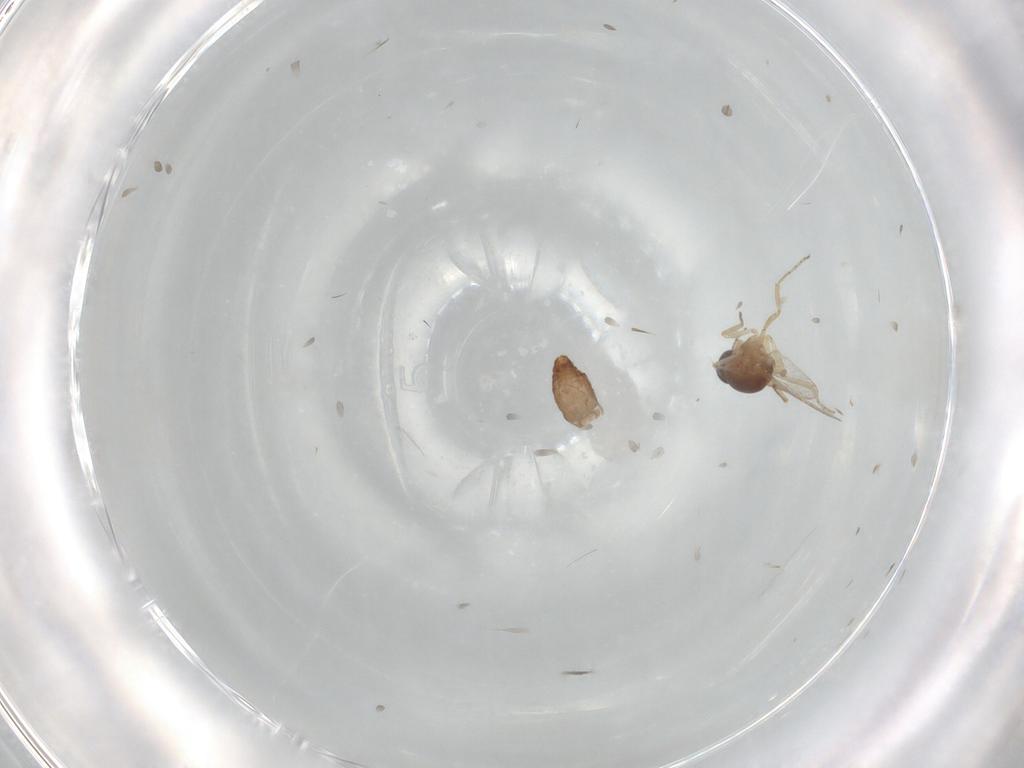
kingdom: Animalia
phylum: Arthropoda
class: Insecta
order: Diptera
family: Ceratopogonidae
